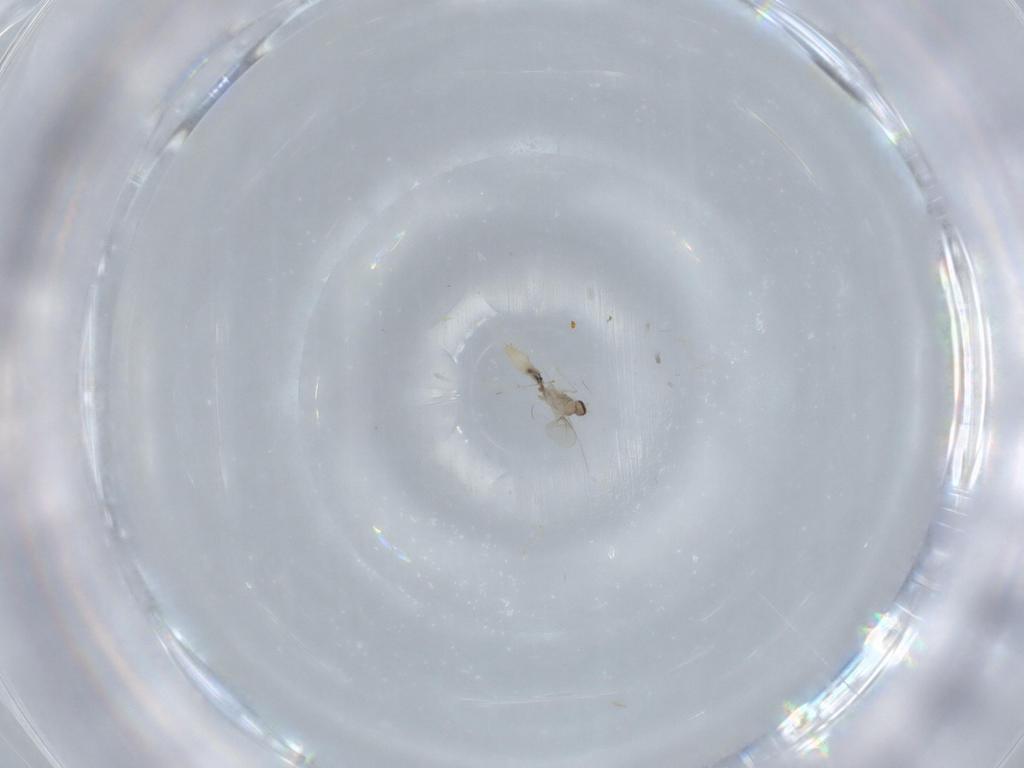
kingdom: Animalia
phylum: Arthropoda
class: Insecta
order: Diptera
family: Cecidomyiidae
